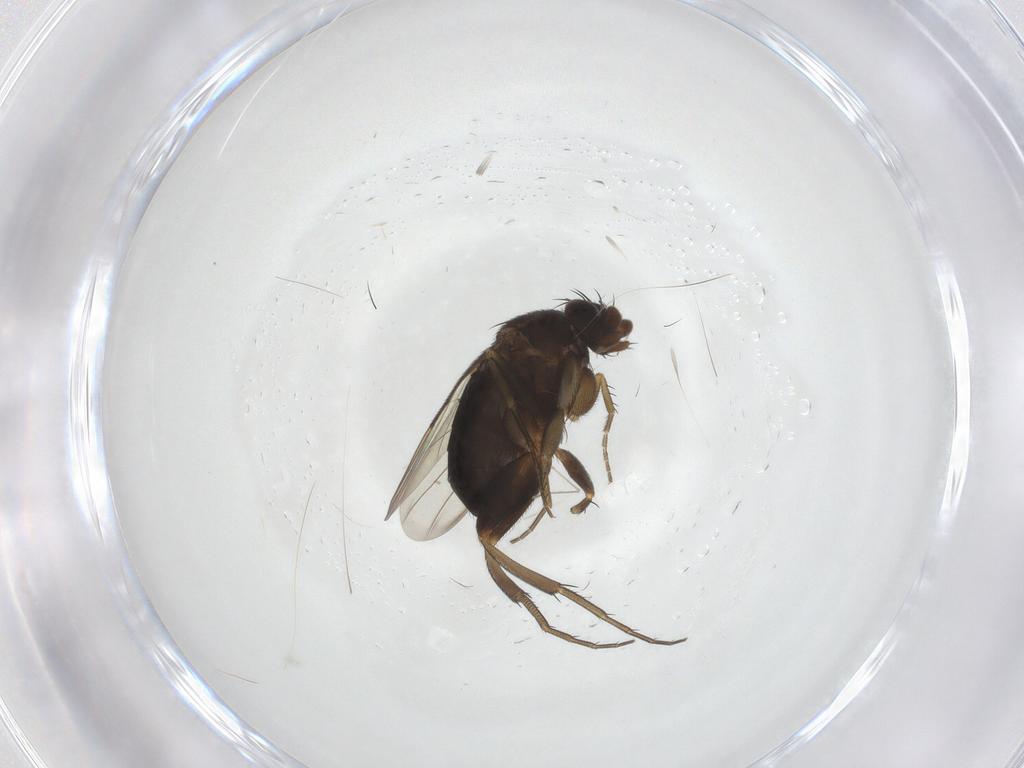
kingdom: Animalia
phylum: Arthropoda
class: Insecta
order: Diptera
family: Phoridae
